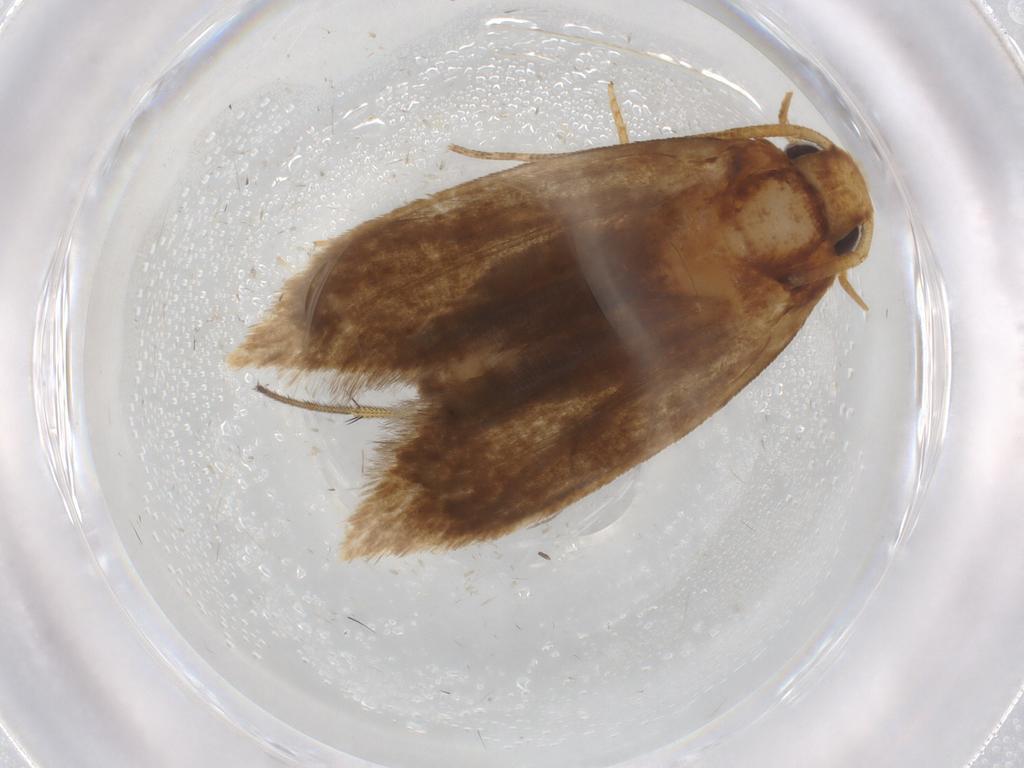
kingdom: Animalia
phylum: Arthropoda
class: Insecta
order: Lepidoptera
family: Tineidae
